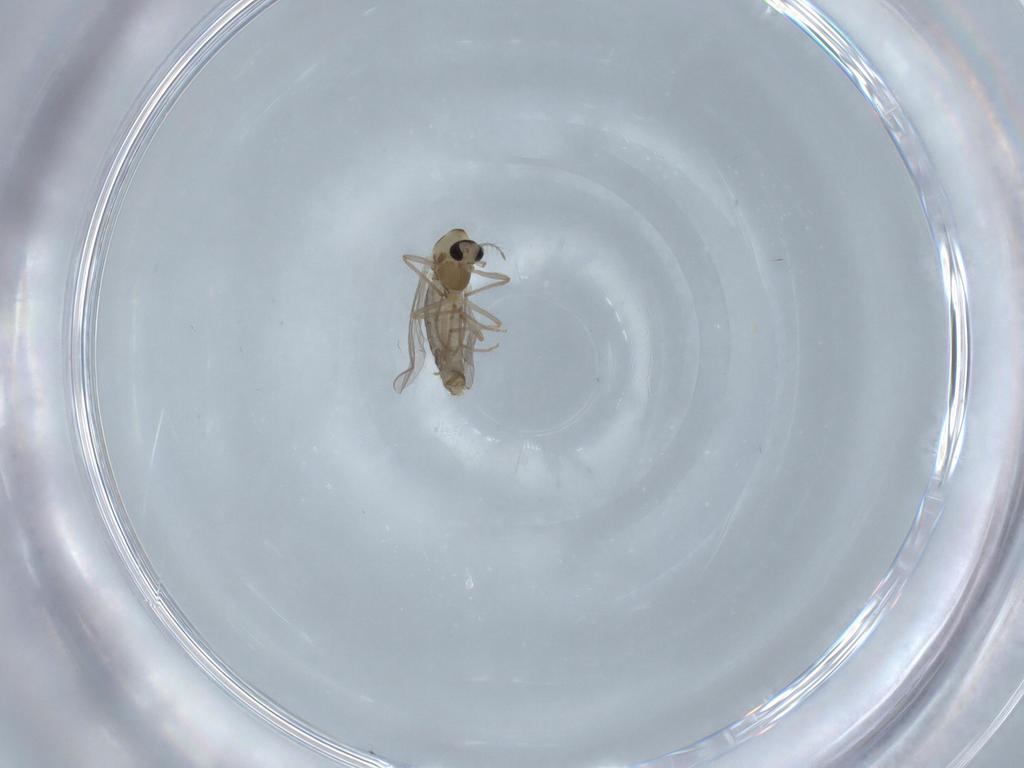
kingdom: Animalia
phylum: Arthropoda
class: Insecta
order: Diptera
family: Chironomidae
